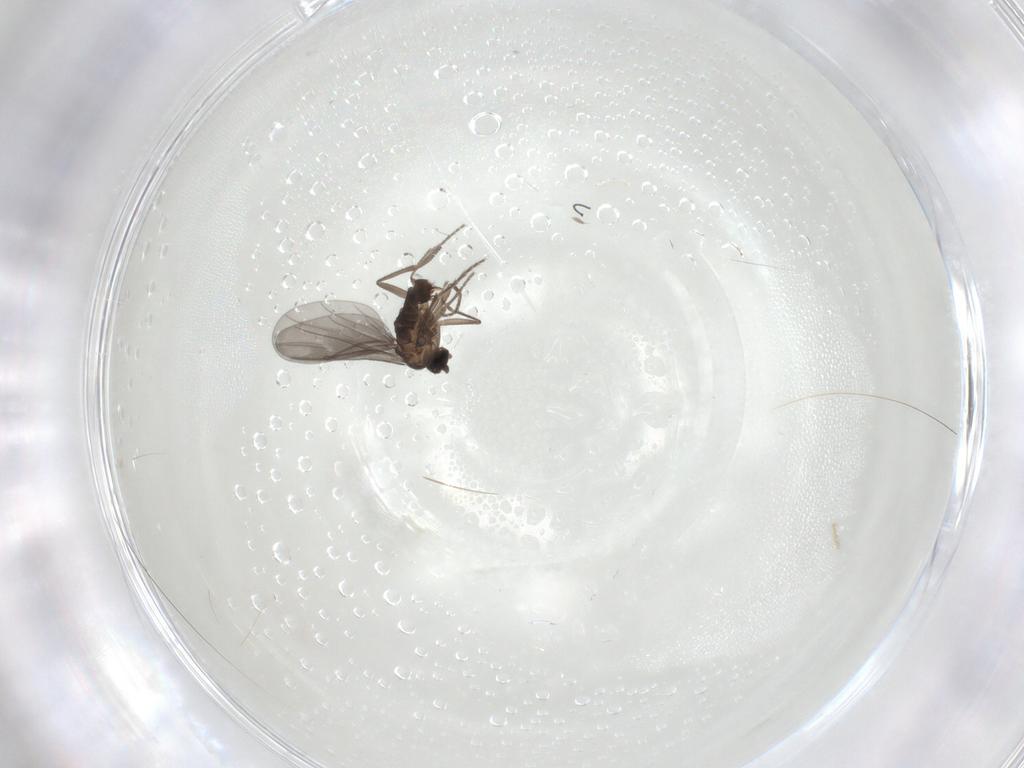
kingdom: Animalia
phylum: Arthropoda
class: Insecta
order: Diptera
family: Phoridae
